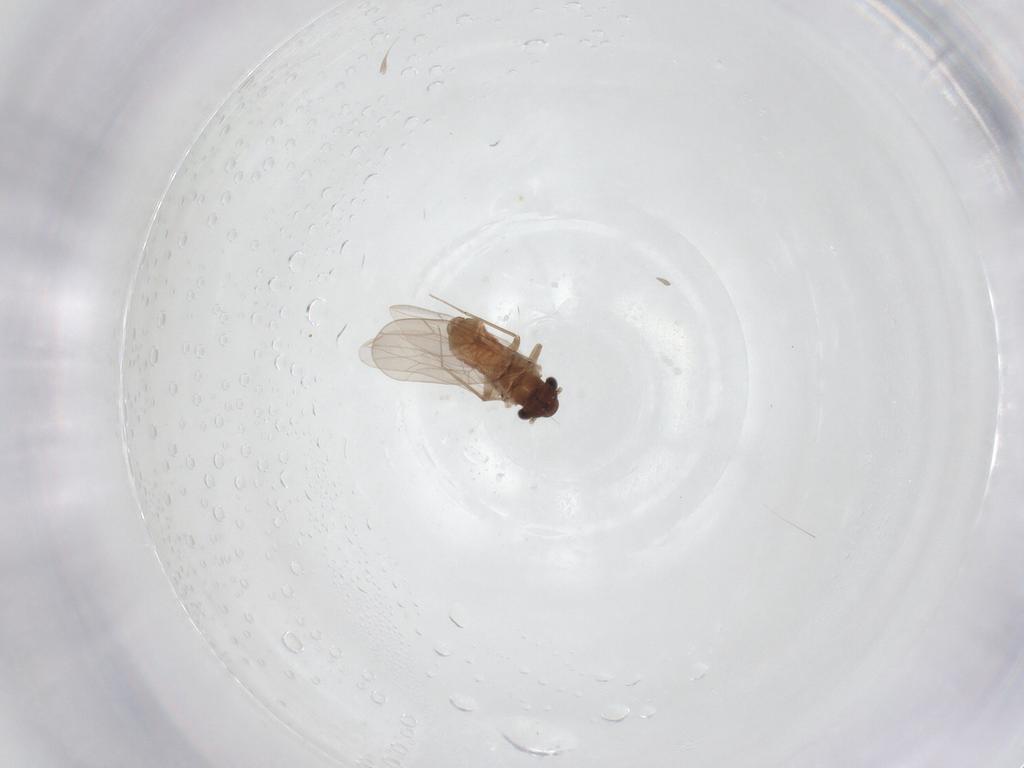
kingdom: Animalia
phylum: Arthropoda
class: Insecta
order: Psocodea
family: Lepidopsocidae
